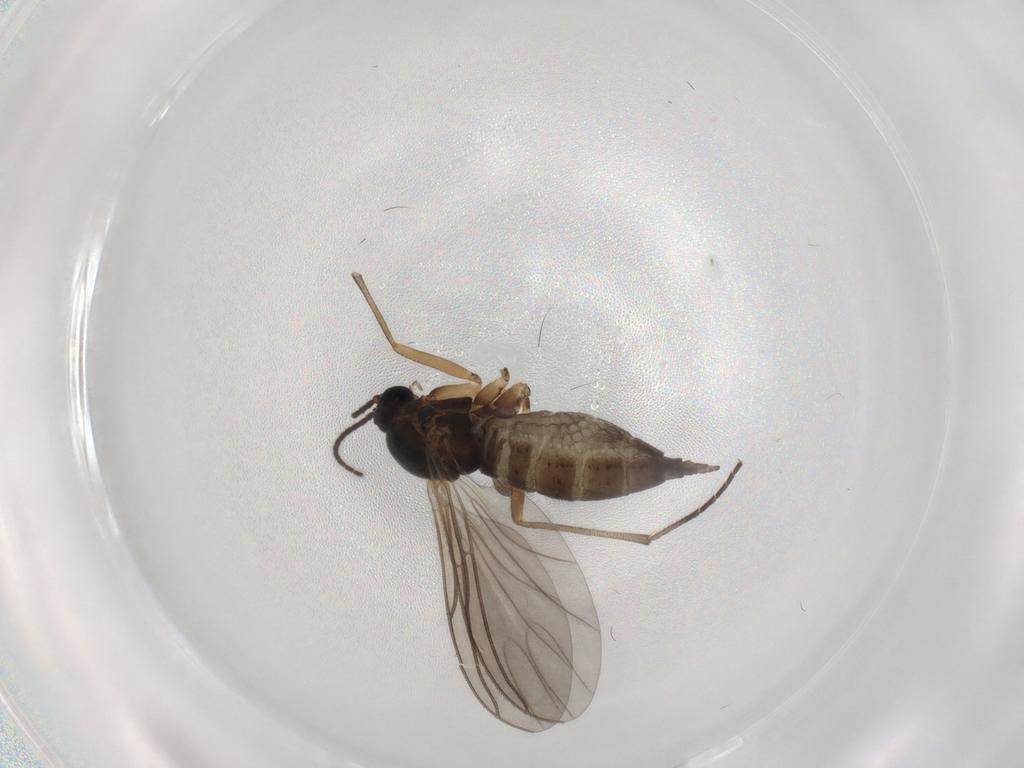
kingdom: Animalia
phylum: Arthropoda
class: Insecta
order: Diptera
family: Sciaridae
